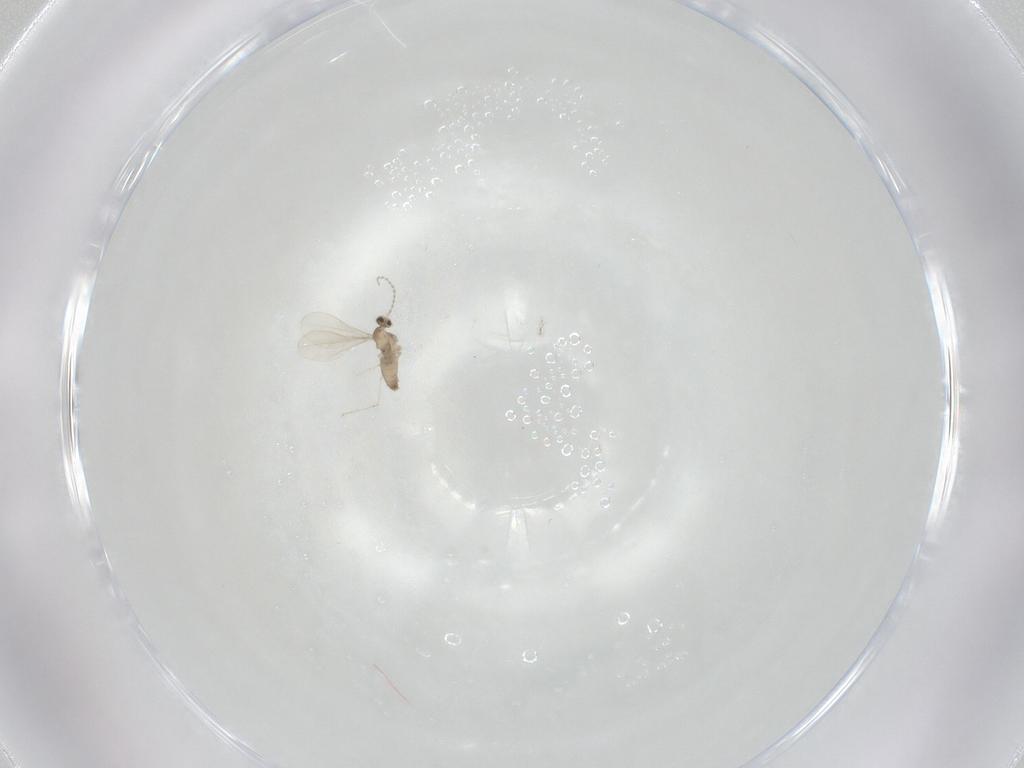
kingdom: Animalia
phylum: Arthropoda
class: Insecta
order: Diptera
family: Cecidomyiidae
